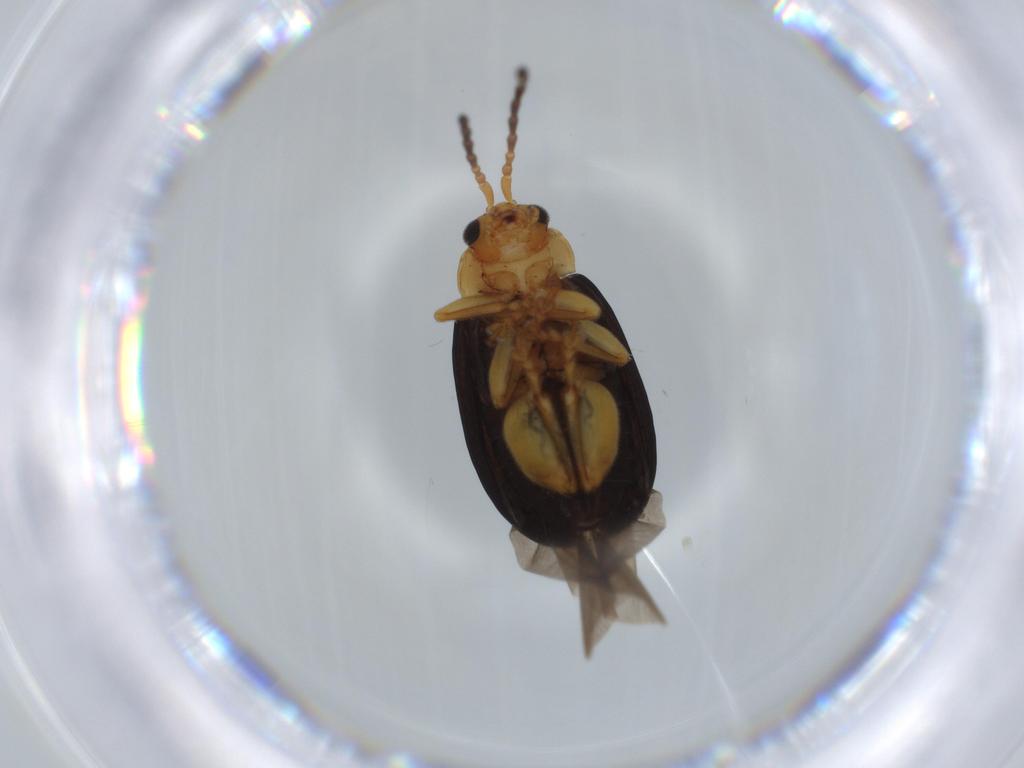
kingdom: Animalia
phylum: Arthropoda
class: Insecta
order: Coleoptera
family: Chrysomelidae
